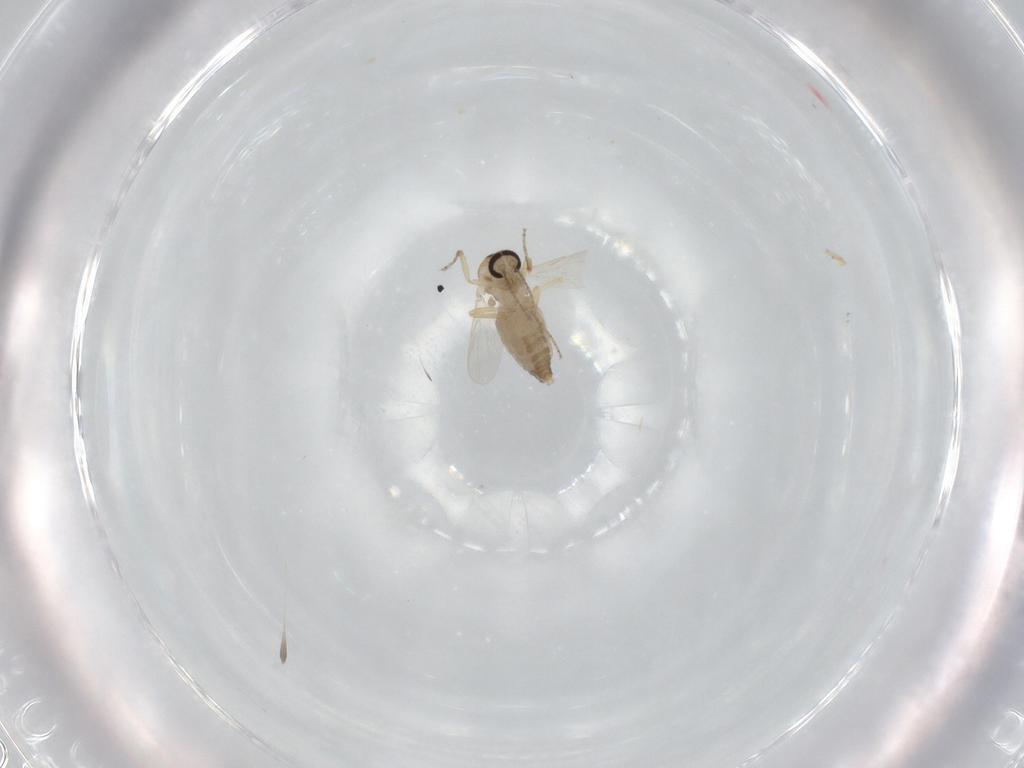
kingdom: Animalia
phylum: Arthropoda
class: Insecta
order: Diptera
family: Ceratopogonidae
